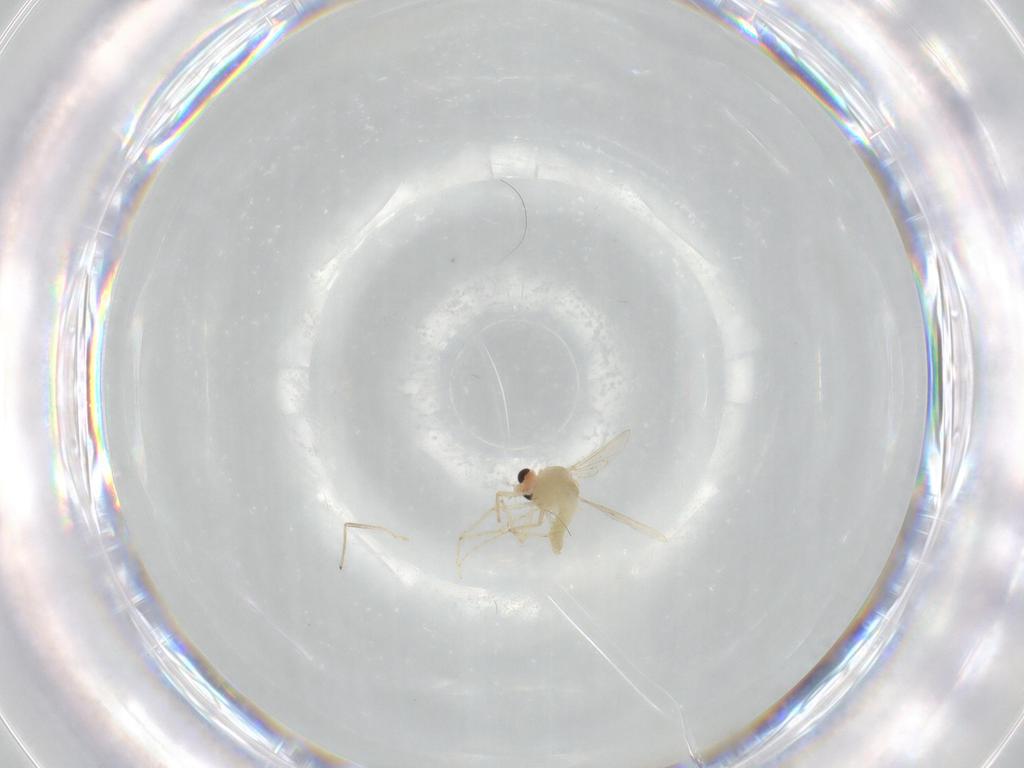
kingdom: Animalia
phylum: Arthropoda
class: Insecta
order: Diptera
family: Chironomidae
